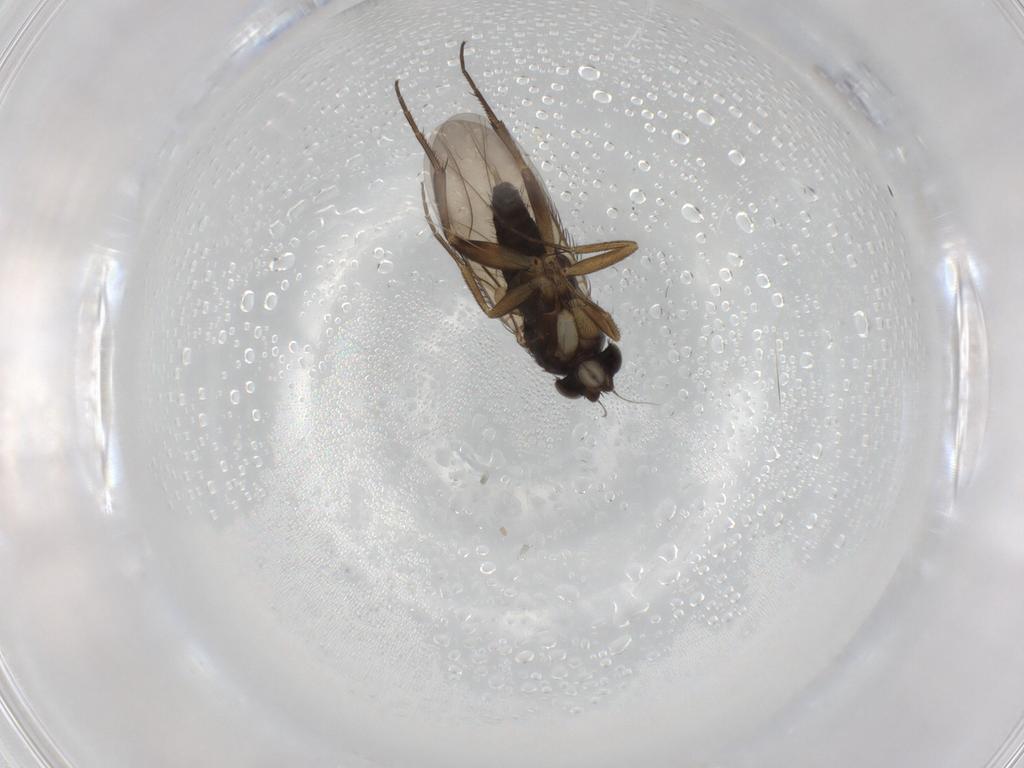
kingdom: Animalia
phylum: Arthropoda
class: Insecta
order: Diptera
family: Phoridae
